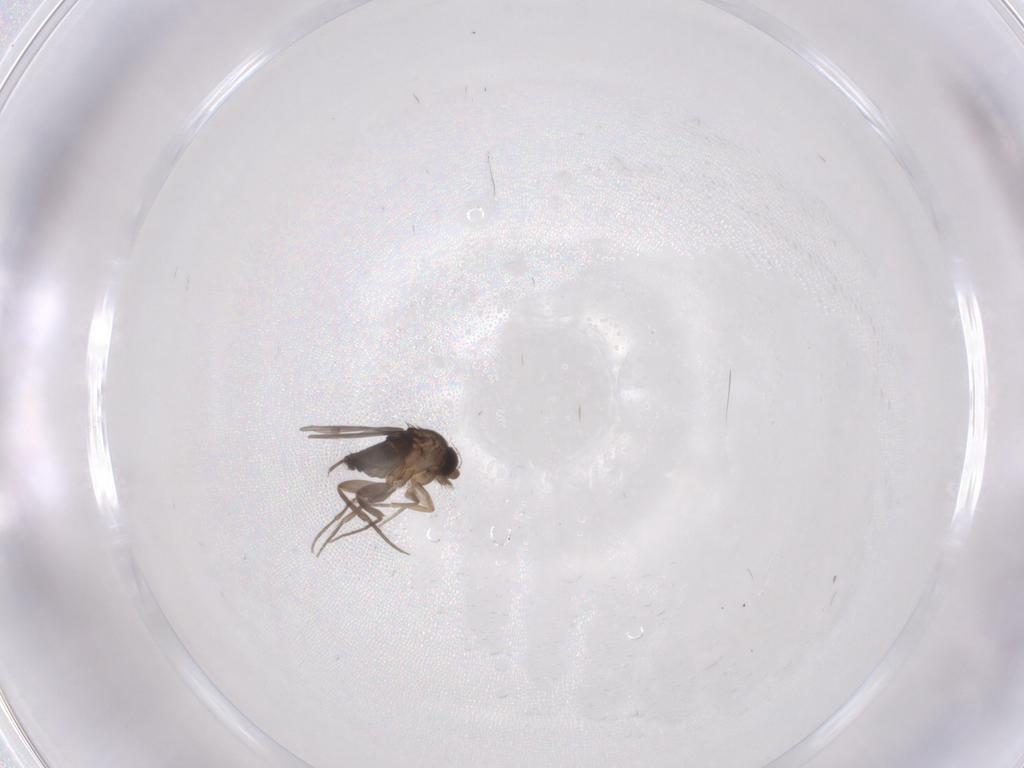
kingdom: Animalia
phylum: Arthropoda
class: Insecta
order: Diptera
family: Phoridae
